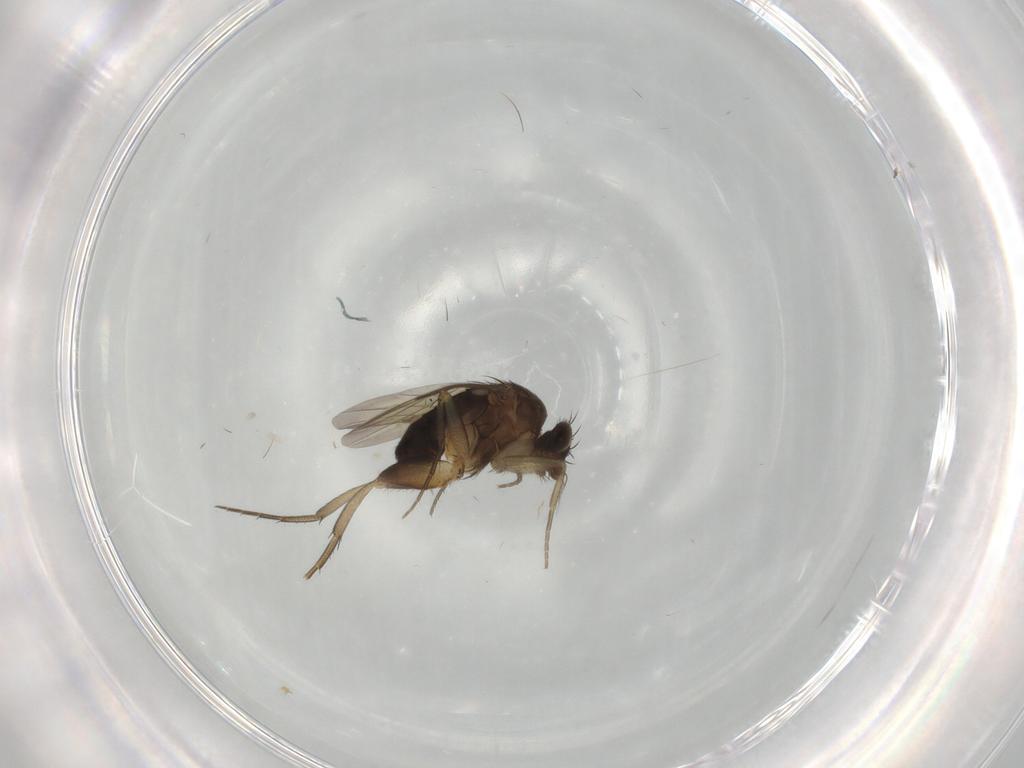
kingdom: Animalia
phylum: Arthropoda
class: Insecta
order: Diptera
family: Phoridae
